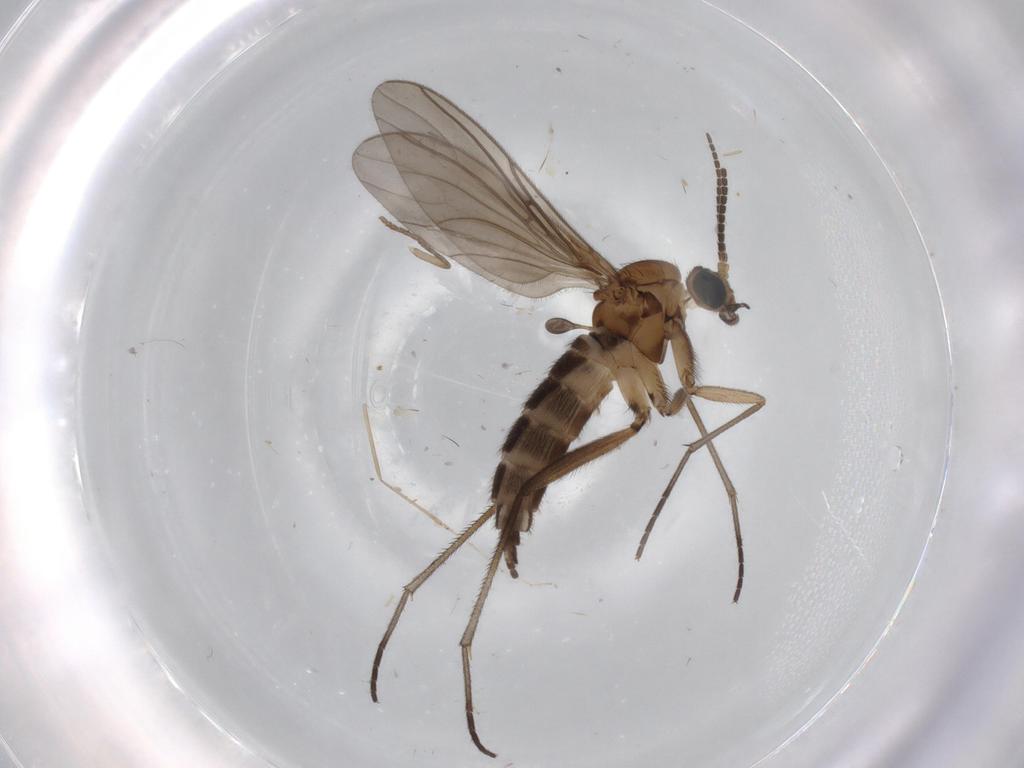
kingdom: Animalia
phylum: Arthropoda
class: Insecta
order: Diptera
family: Sciaridae
